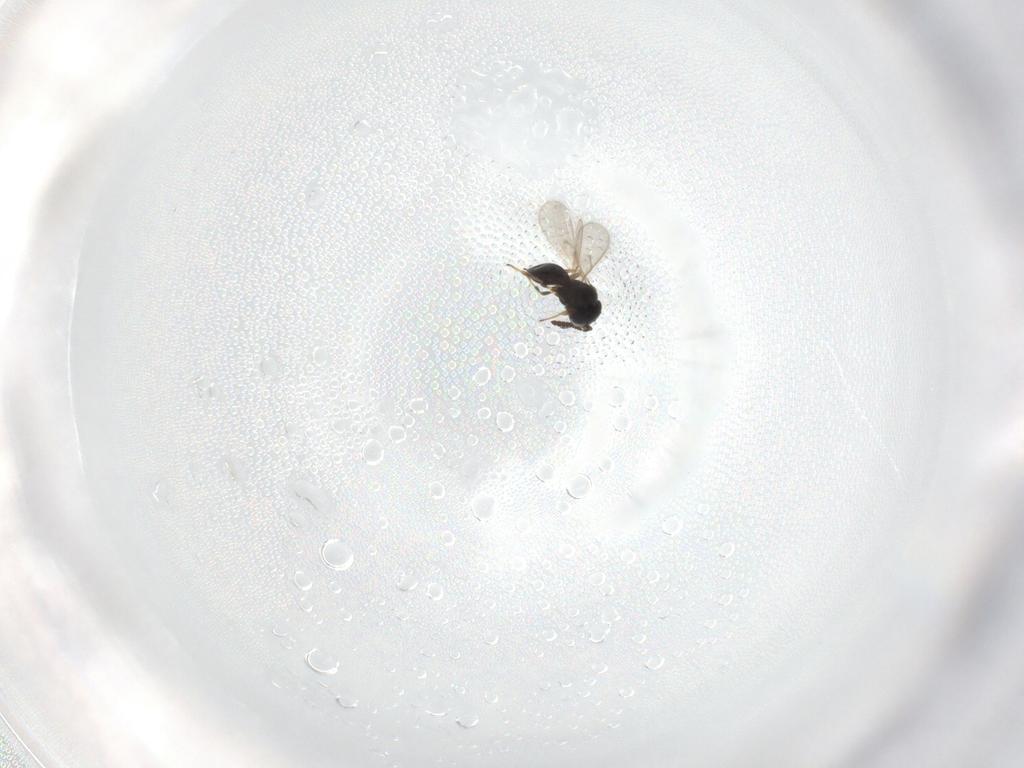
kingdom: Animalia
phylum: Arthropoda
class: Insecta
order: Hymenoptera
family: Scelionidae
